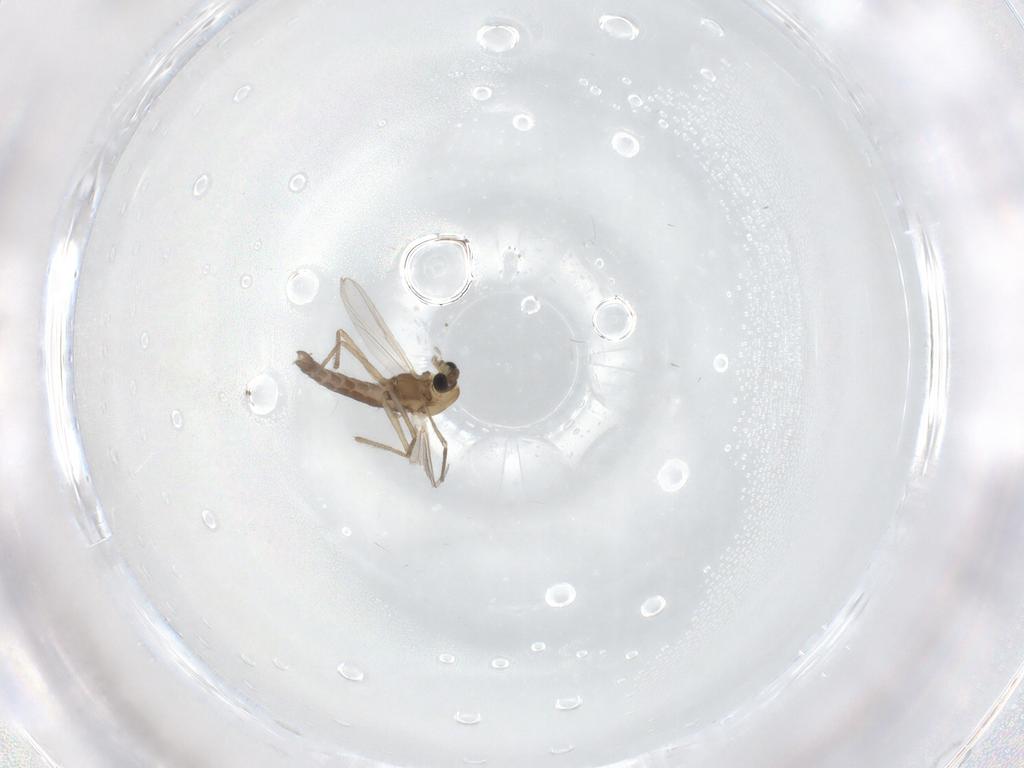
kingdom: Animalia
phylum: Arthropoda
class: Insecta
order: Diptera
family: Chironomidae
